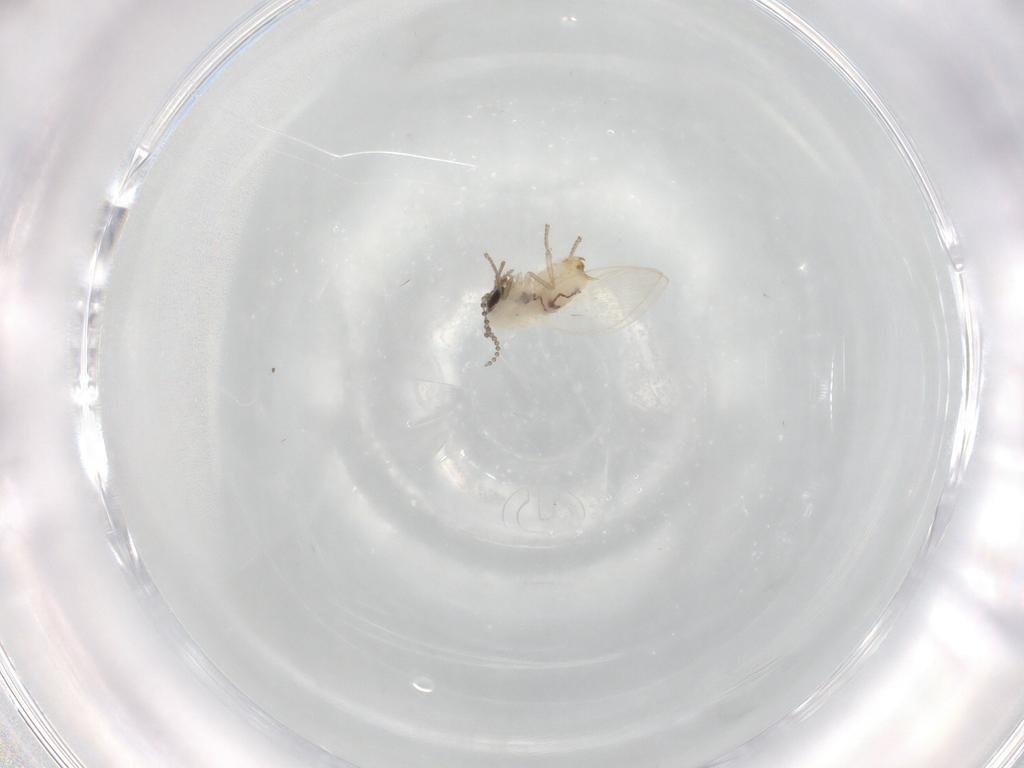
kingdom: Animalia
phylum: Arthropoda
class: Insecta
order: Diptera
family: Psychodidae
